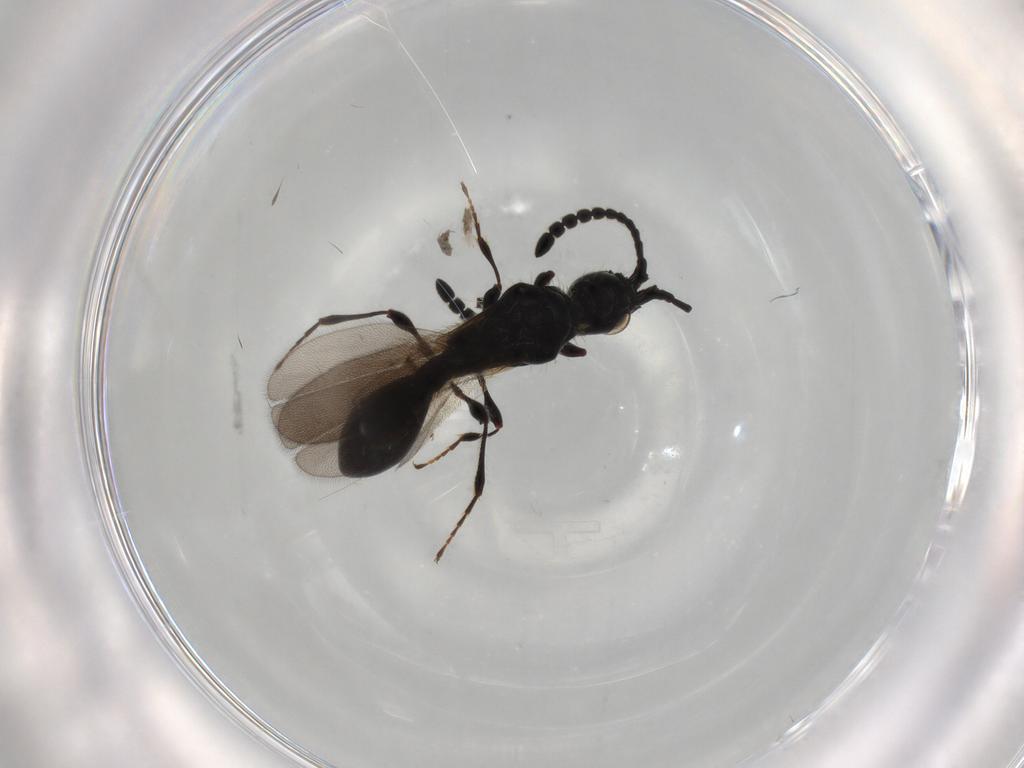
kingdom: Animalia
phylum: Arthropoda
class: Insecta
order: Hymenoptera
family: Diapriidae
